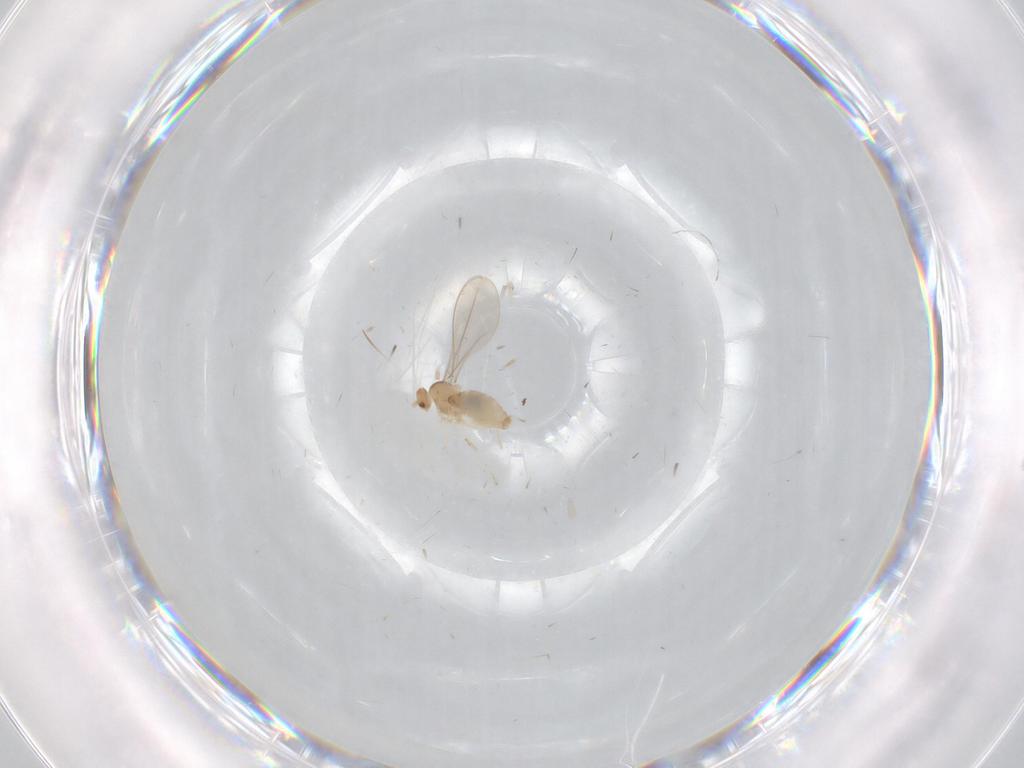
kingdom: Animalia
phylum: Arthropoda
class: Insecta
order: Diptera
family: Cecidomyiidae
